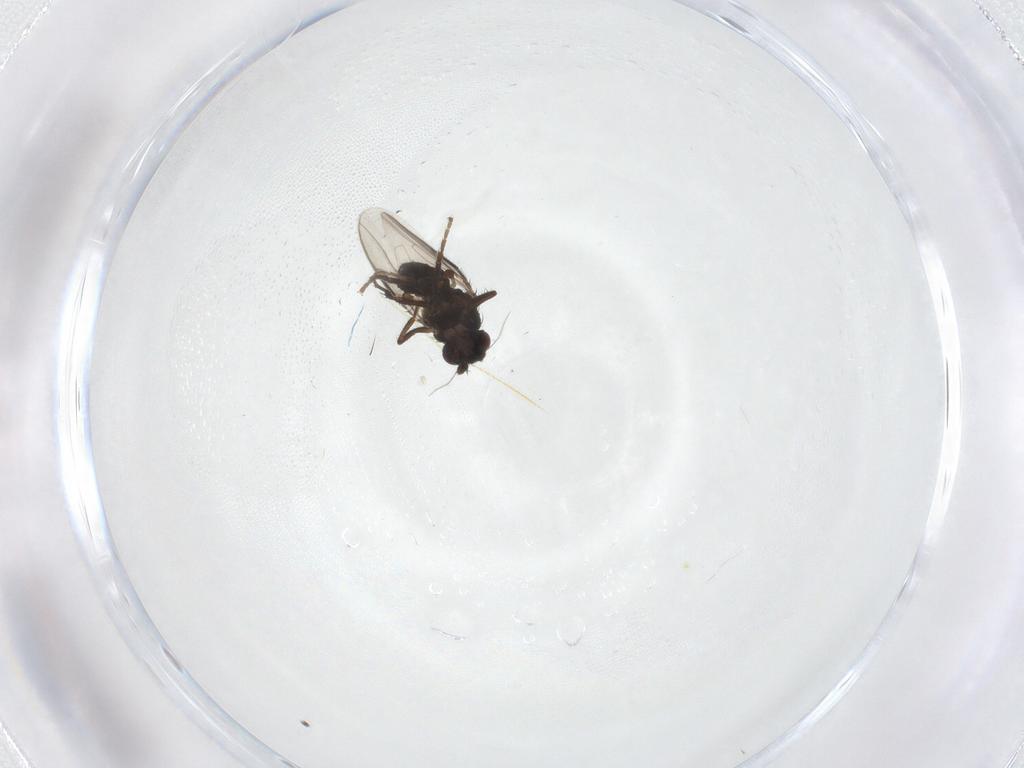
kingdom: Animalia
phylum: Arthropoda
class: Insecta
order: Diptera
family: Sphaeroceridae
